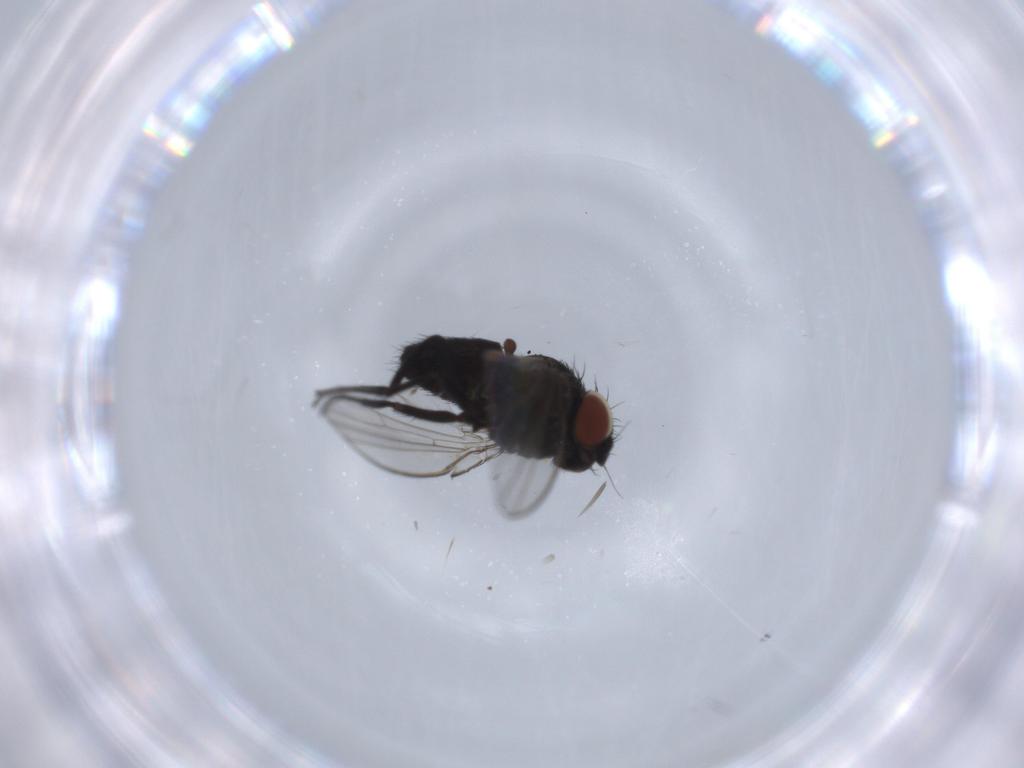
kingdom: Animalia
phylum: Arthropoda
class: Insecta
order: Diptera
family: Milichiidae
